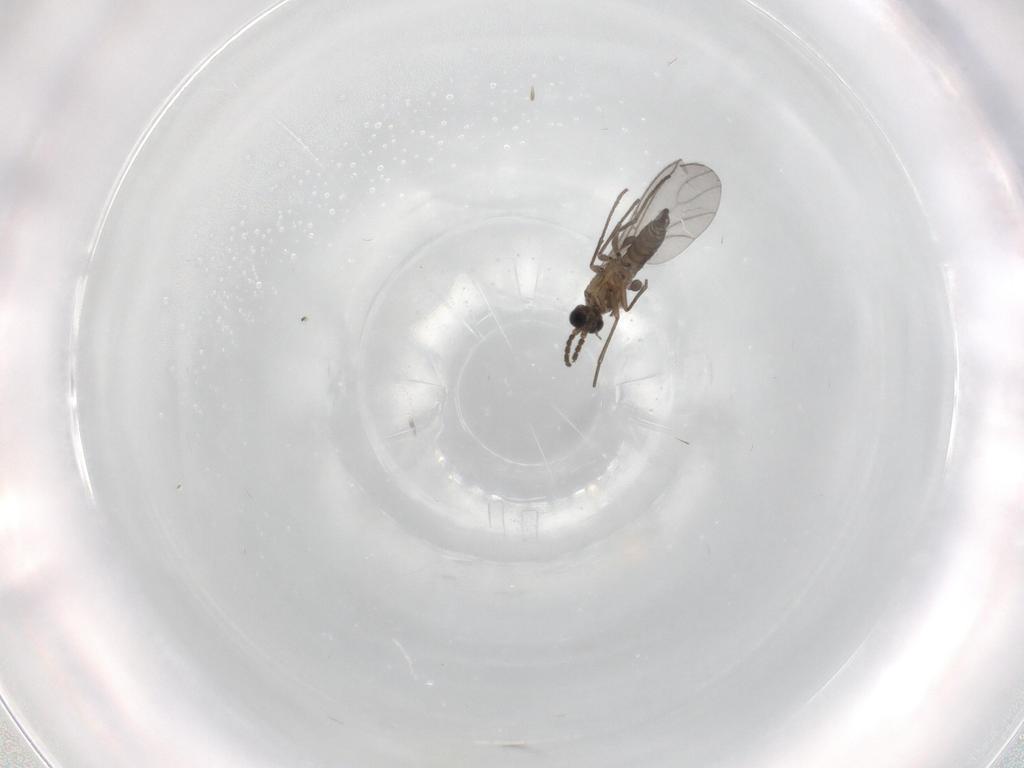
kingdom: Animalia
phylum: Arthropoda
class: Insecta
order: Diptera
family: Sciaridae
